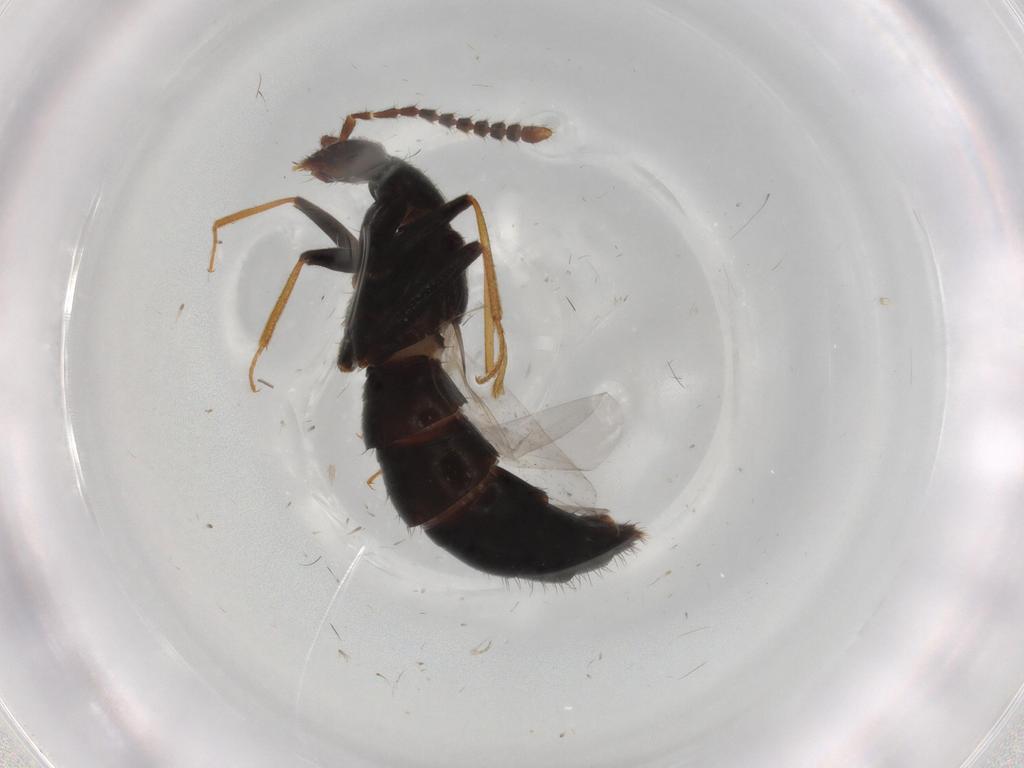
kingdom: Animalia
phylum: Arthropoda
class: Insecta
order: Coleoptera
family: Staphylinidae
